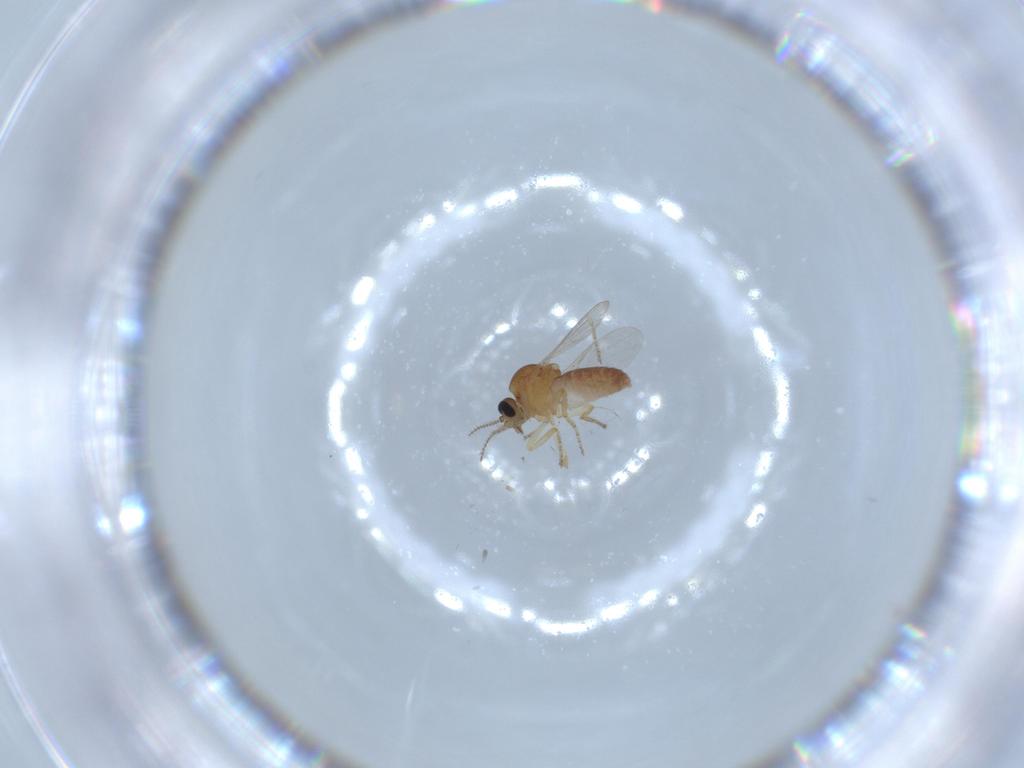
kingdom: Animalia
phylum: Arthropoda
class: Insecta
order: Diptera
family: Ceratopogonidae
